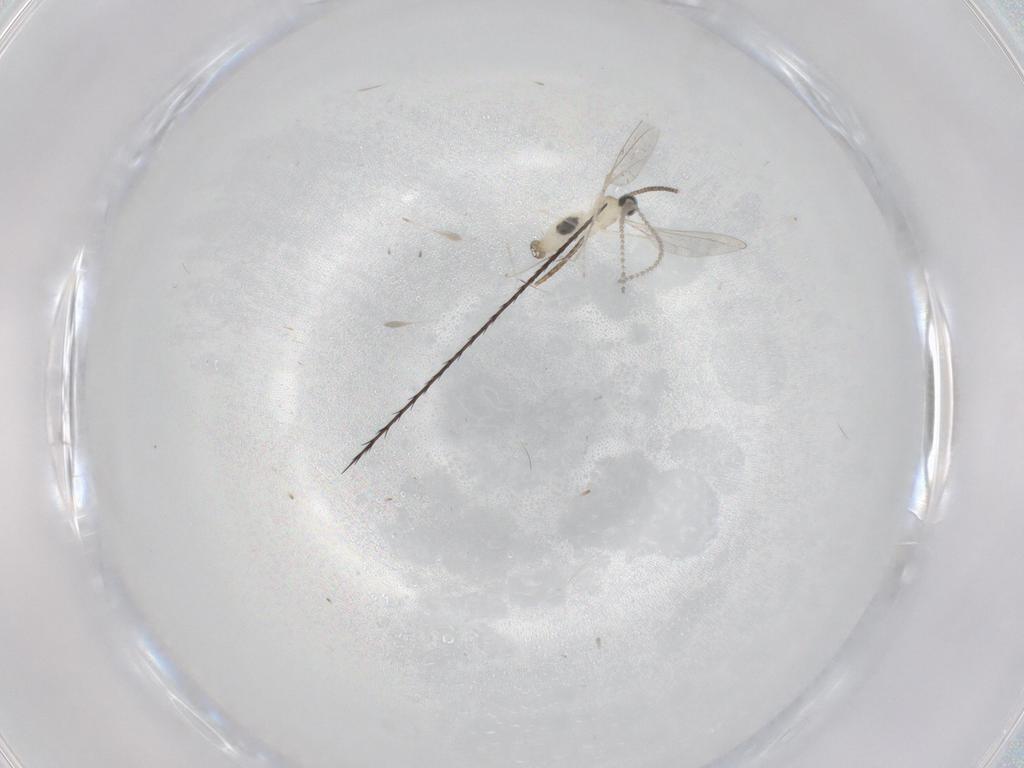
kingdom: Animalia
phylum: Arthropoda
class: Insecta
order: Diptera
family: Cecidomyiidae
